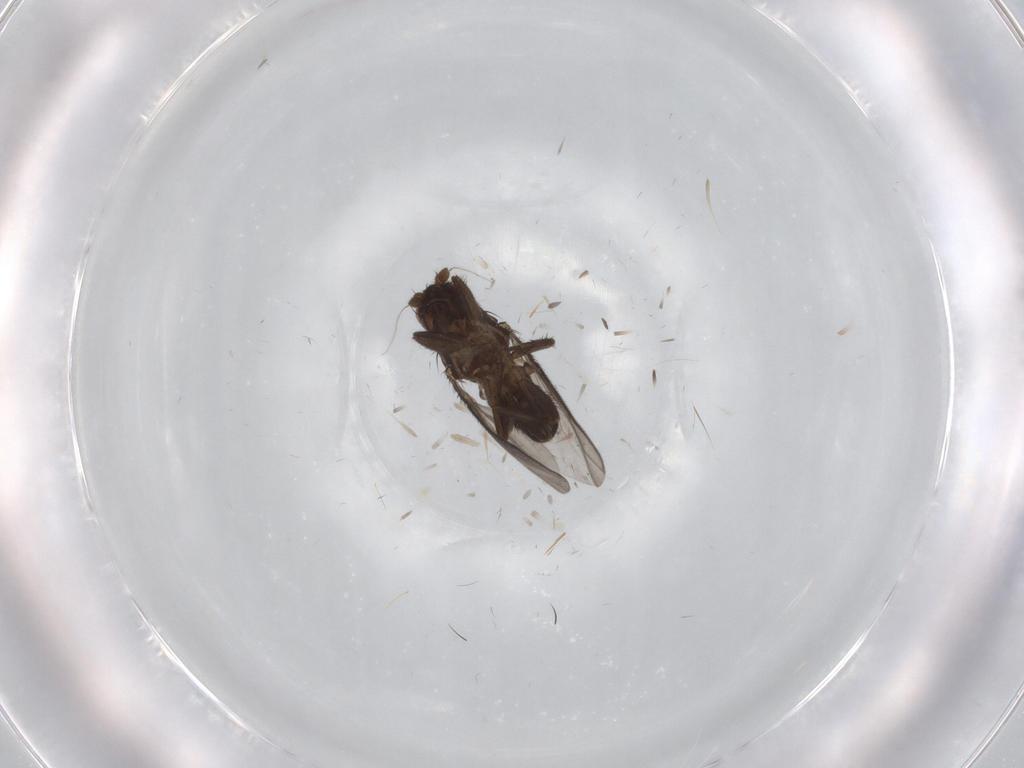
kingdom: Animalia
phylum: Arthropoda
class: Insecta
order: Diptera
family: Sphaeroceridae
